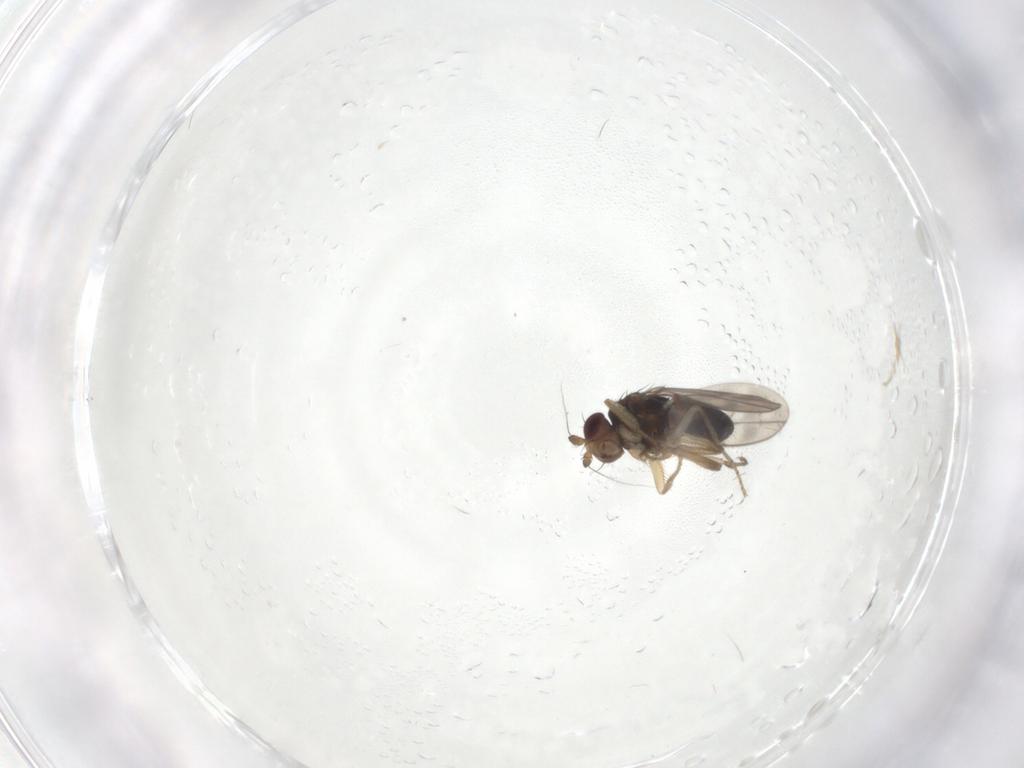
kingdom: Animalia
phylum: Arthropoda
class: Insecta
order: Diptera
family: Sphaeroceridae
